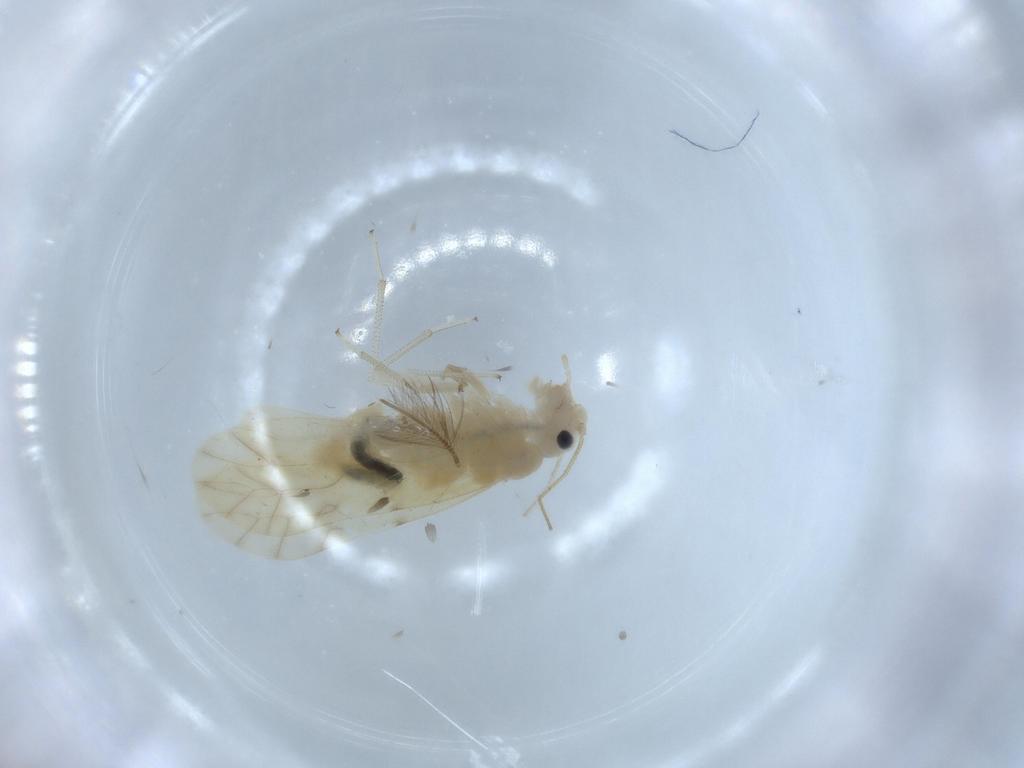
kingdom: Animalia
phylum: Arthropoda
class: Insecta
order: Psocodea
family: Caeciliusidae
